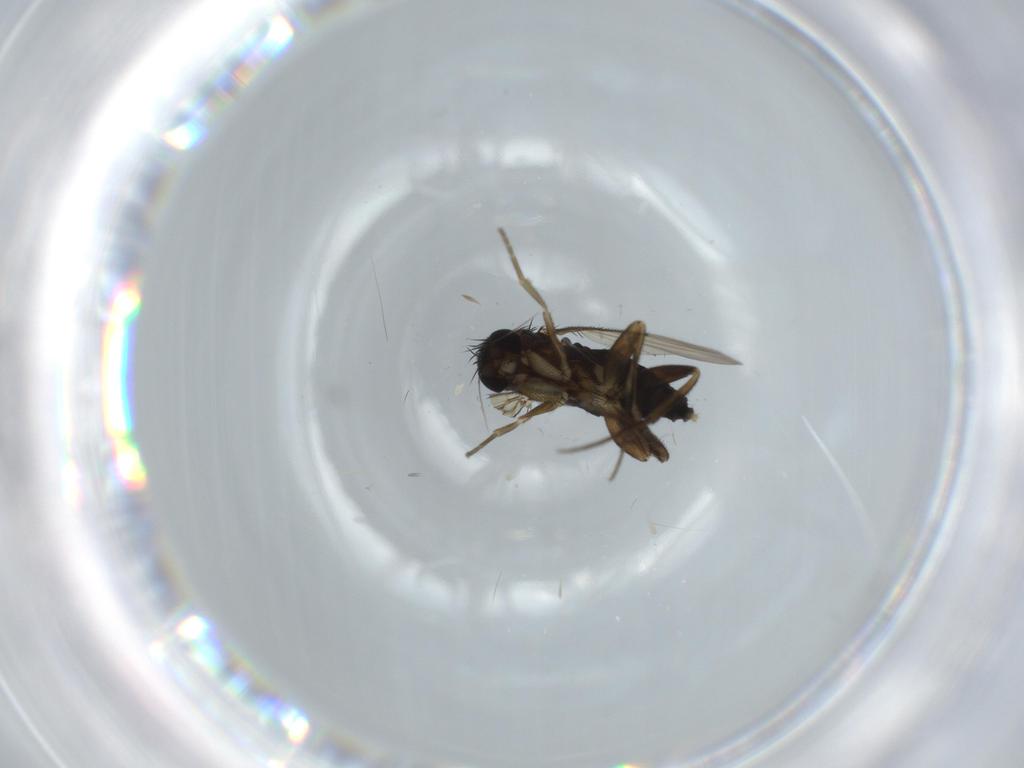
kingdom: Animalia
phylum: Arthropoda
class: Insecta
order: Diptera
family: Phoridae
